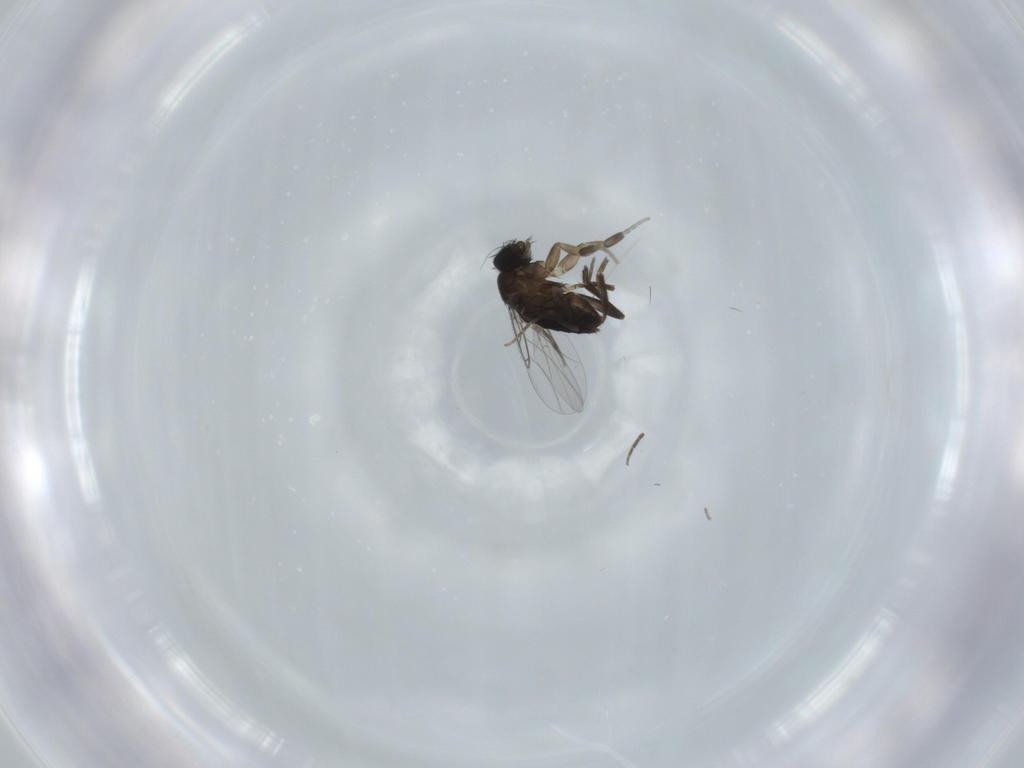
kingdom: Animalia
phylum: Arthropoda
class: Insecta
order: Diptera
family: Phoridae
